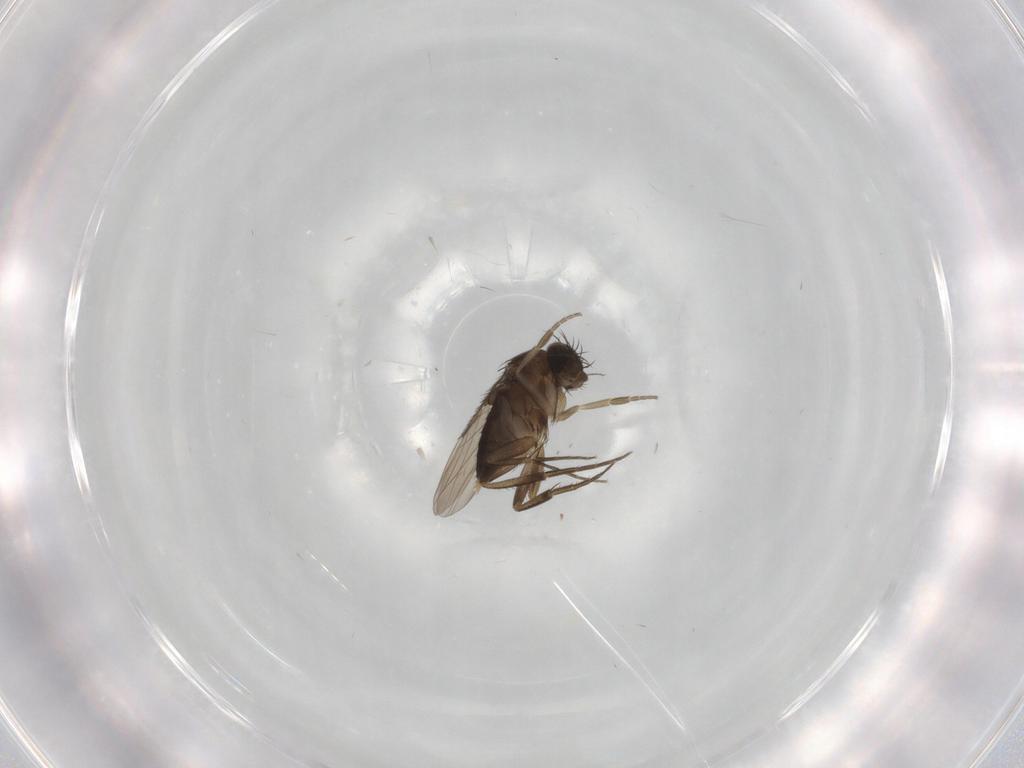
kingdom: Animalia
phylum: Arthropoda
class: Insecta
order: Diptera
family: Phoridae
